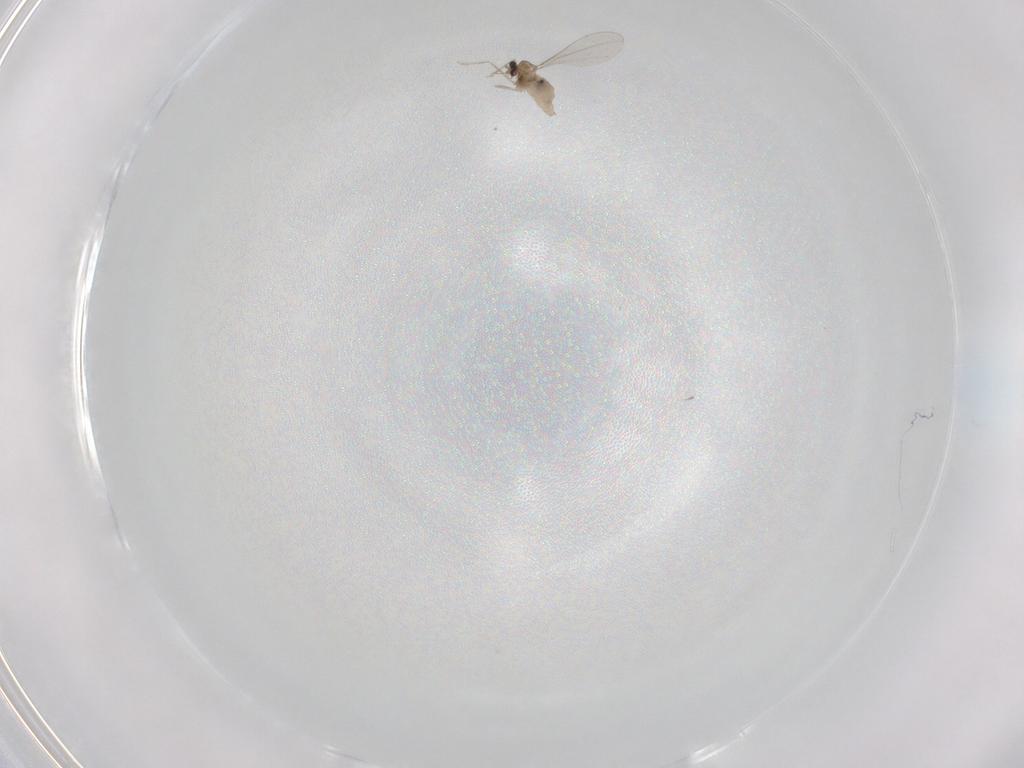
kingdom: Animalia
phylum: Arthropoda
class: Insecta
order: Diptera
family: Cecidomyiidae
